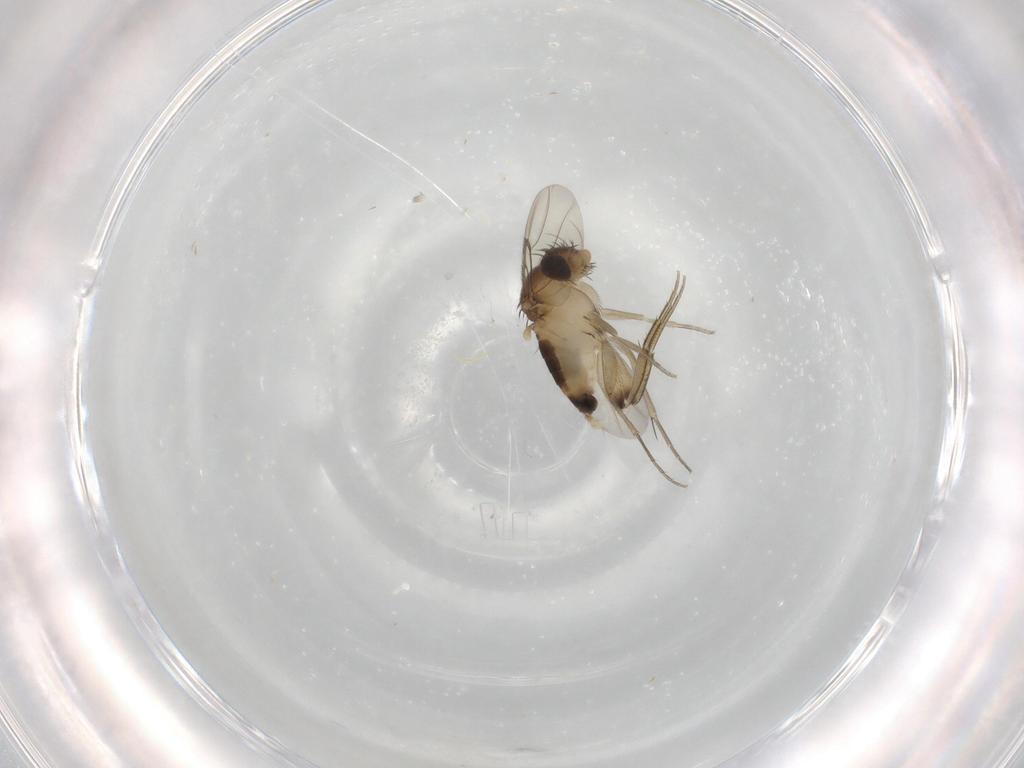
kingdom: Animalia
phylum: Arthropoda
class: Insecta
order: Diptera
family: Phoridae
